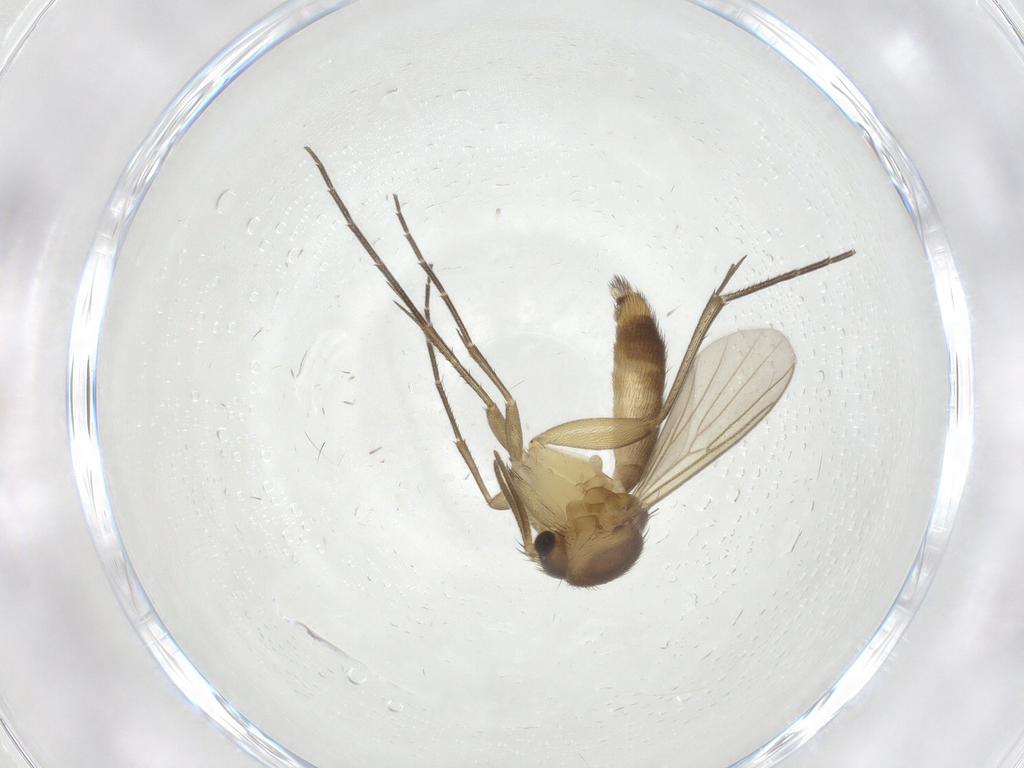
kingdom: Animalia
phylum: Arthropoda
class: Insecta
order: Diptera
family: Mycetophilidae
